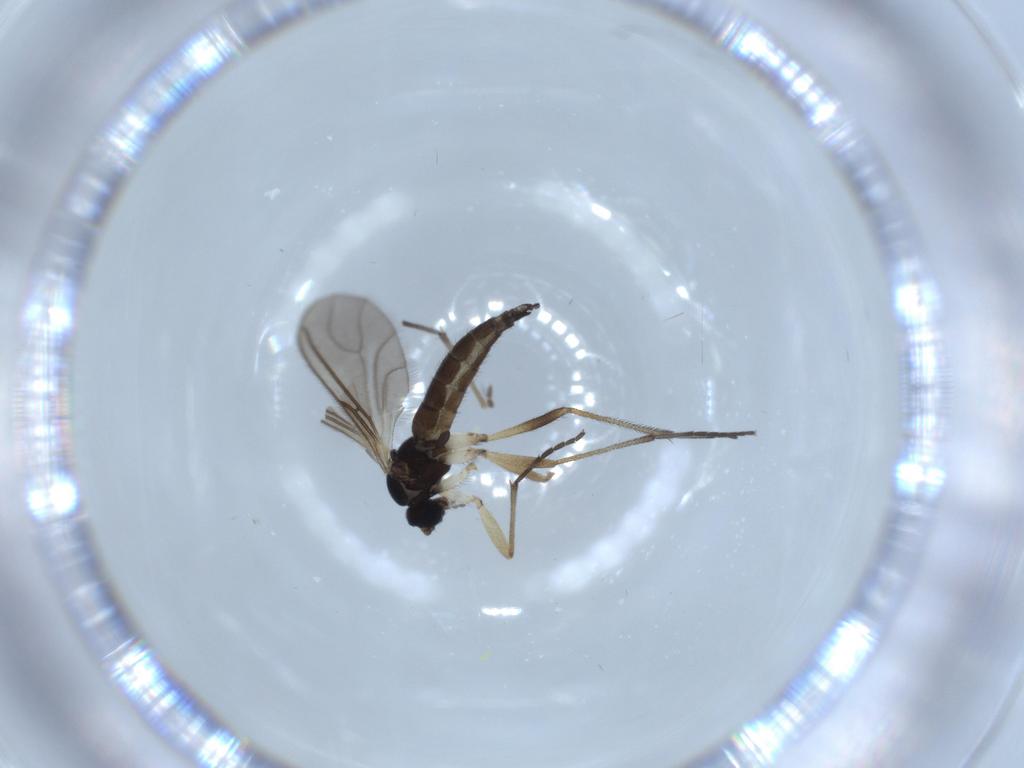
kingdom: Animalia
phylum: Arthropoda
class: Insecta
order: Diptera
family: Sciaridae
